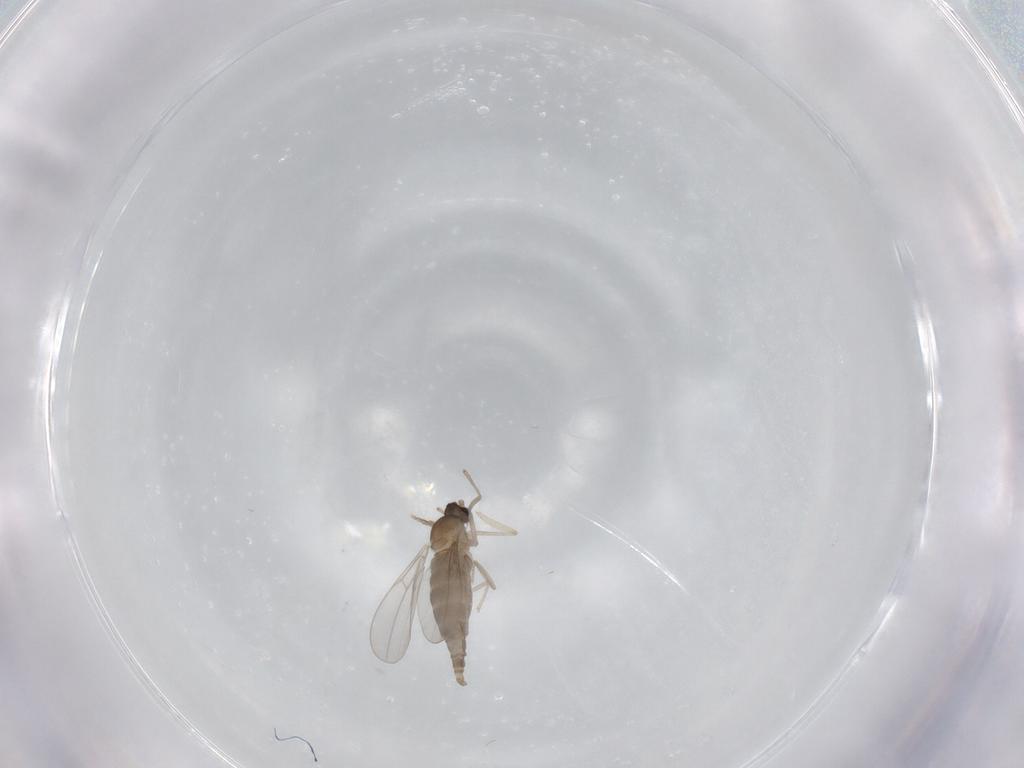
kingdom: Animalia
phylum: Arthropoda
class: Insecta
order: Diptera
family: Cecidomyiidae
